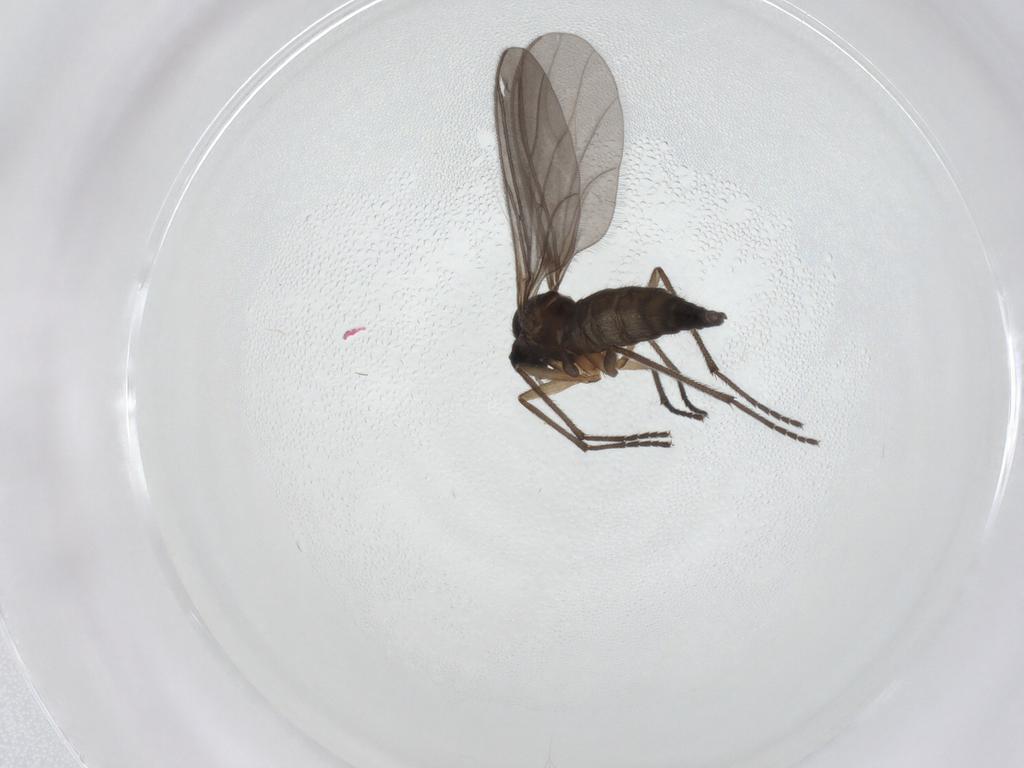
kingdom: Animalia
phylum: Arthropoda
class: Insecta
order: Diptera
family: Sciaridae
